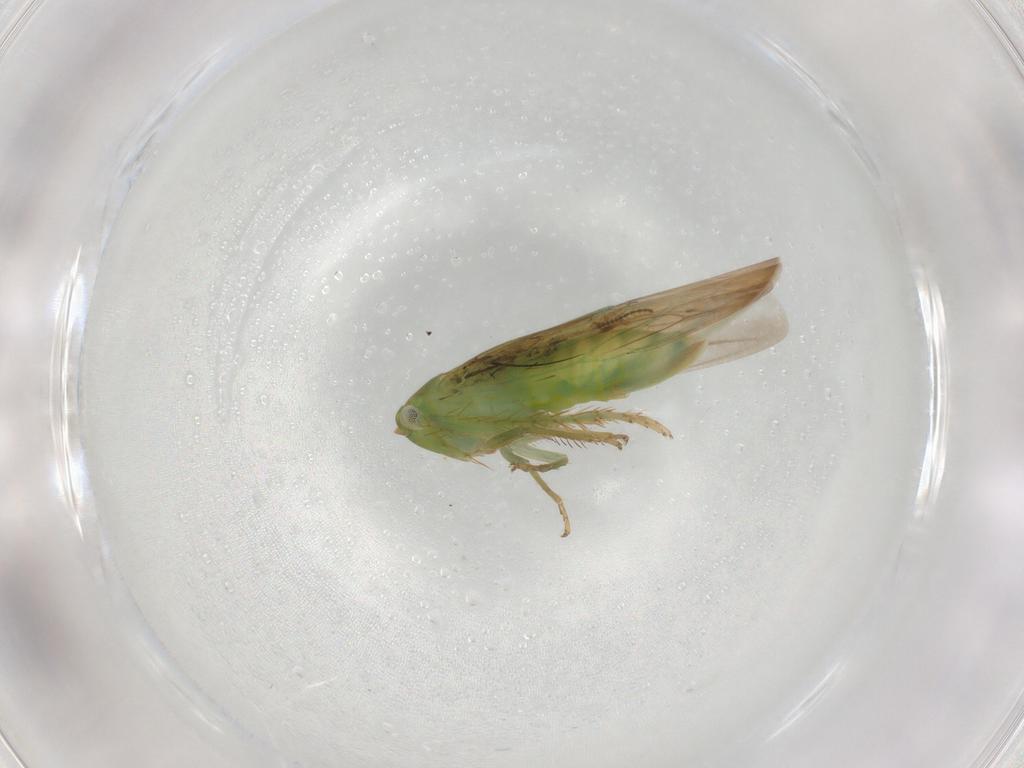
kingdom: Animalia
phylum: Arthropoda
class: Insecta
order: Hemiptera
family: Cicadellidae
